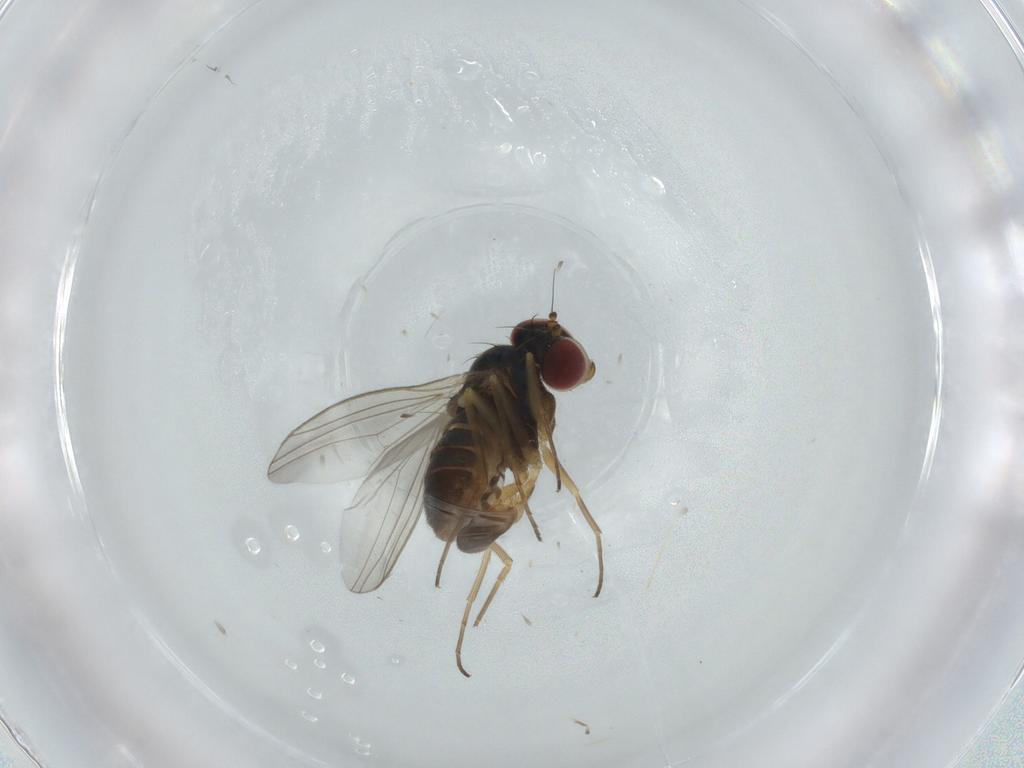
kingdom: Animalia
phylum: Arthropoda
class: Insecta
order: Diptera
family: Dolichopodidae
